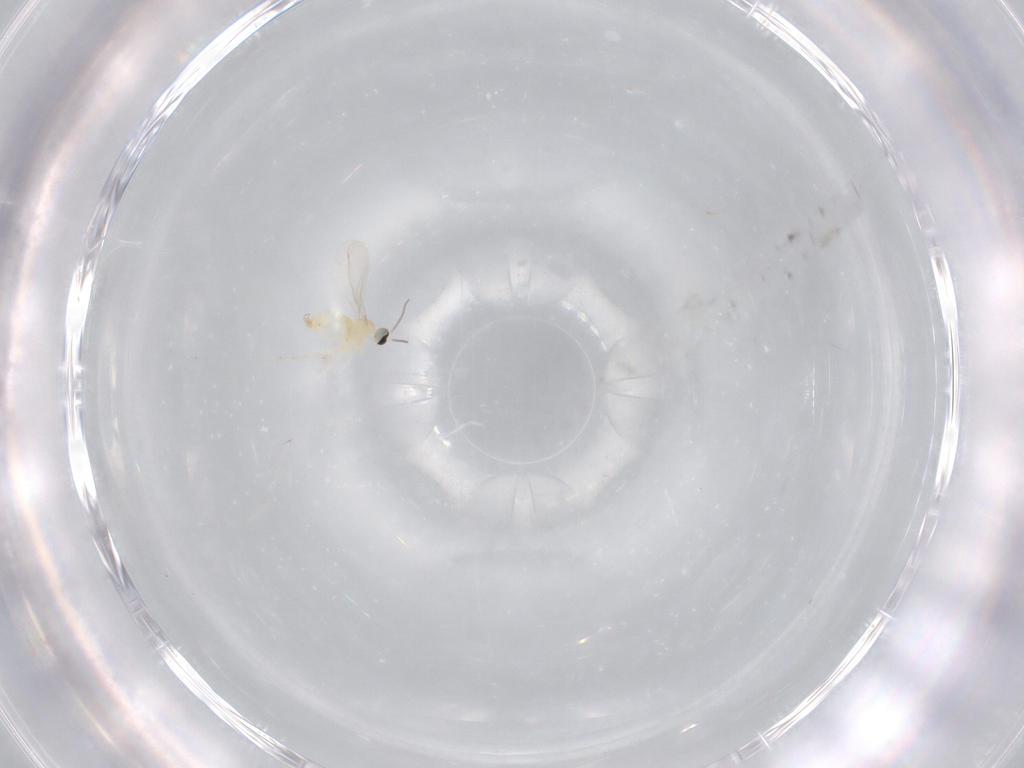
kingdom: Animalia
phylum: Arthropoda
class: Insecta
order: Diptera
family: Cecidomyiidae
